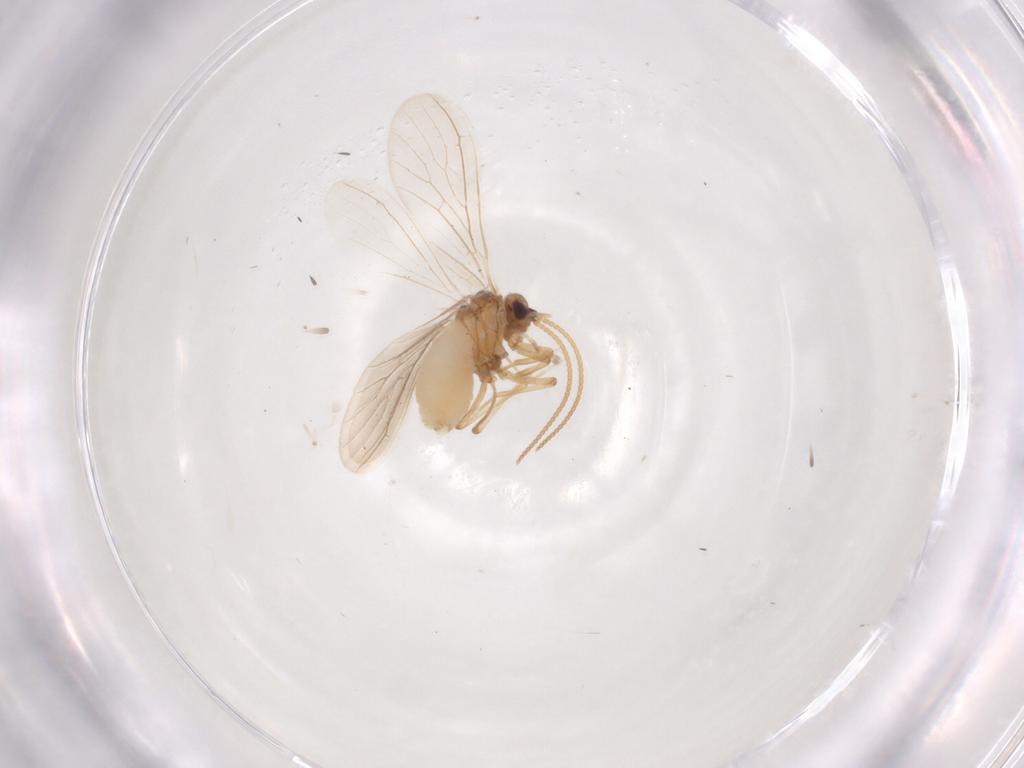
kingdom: Animalia
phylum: Arthropoda
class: Insecta
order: Neuroptera
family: Coniopterygidae
